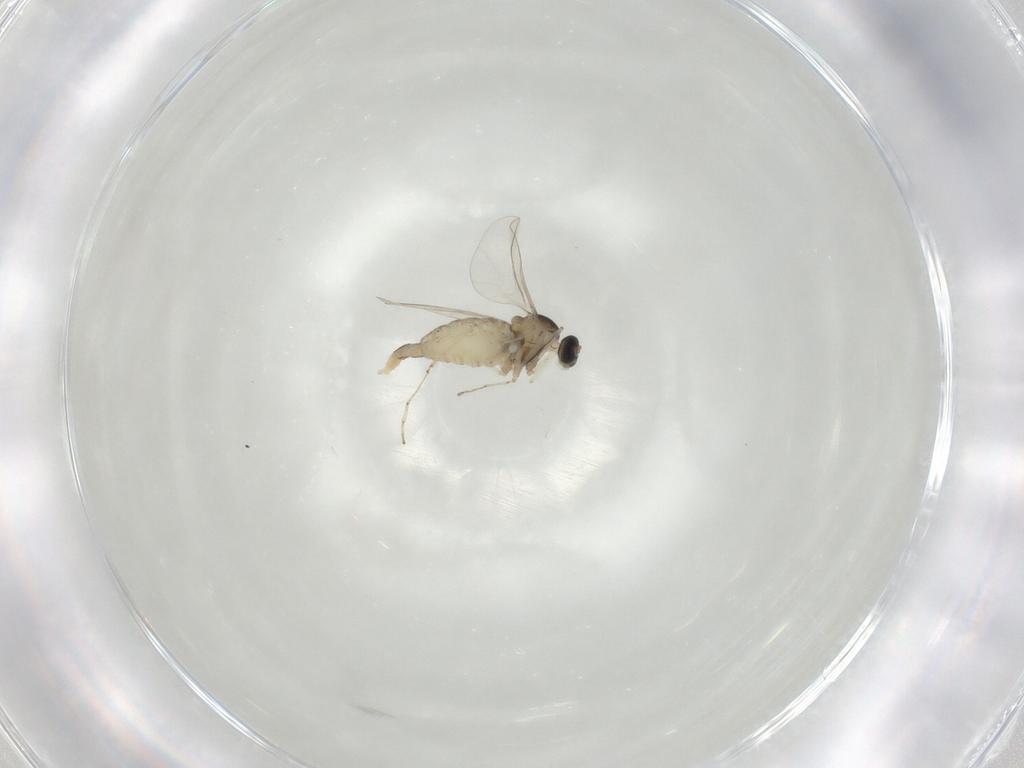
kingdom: Animalia
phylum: Arthropoda
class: Insecta
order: Diptera
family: Cecidomyiidae
